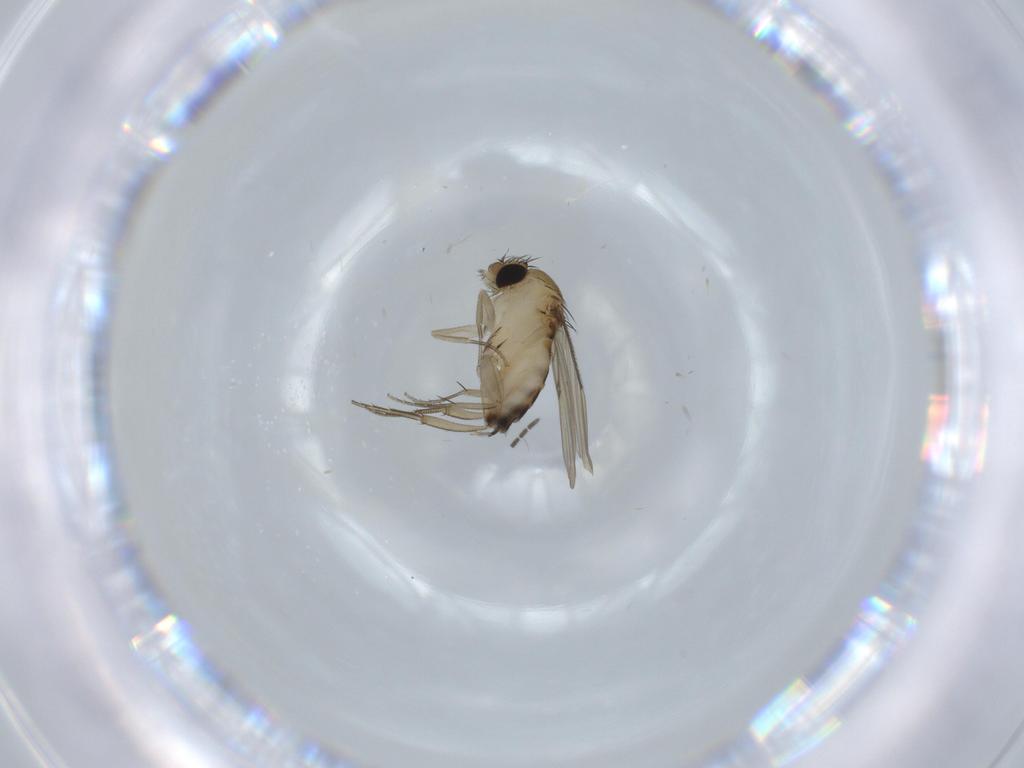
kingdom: Animalia
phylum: Arthropoda
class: Insecta
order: Diptera
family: Phoridae
